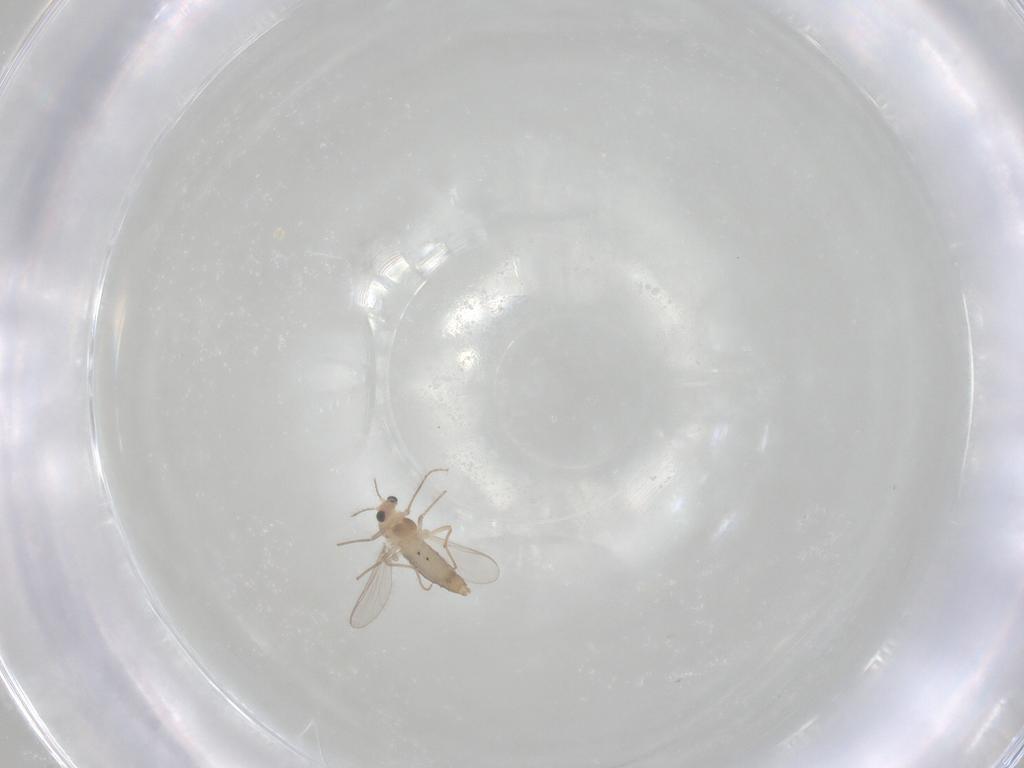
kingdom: Animalia
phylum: Arthropoda
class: Insecta
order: Diptera
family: Chironomidae
